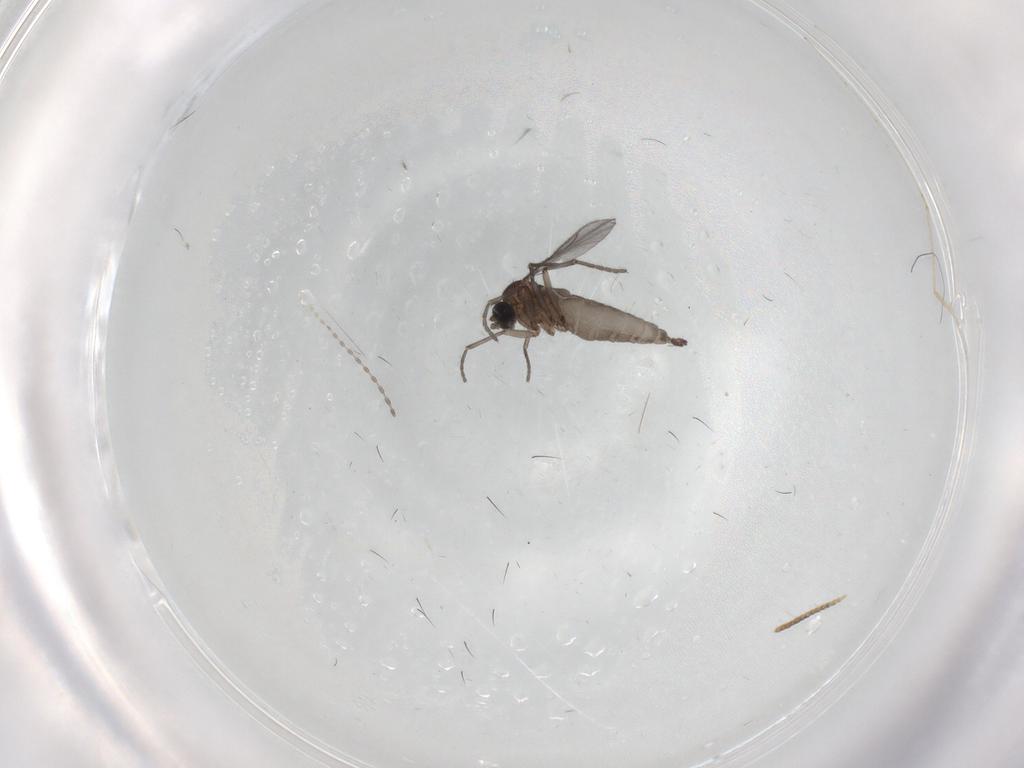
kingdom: Animalia
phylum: Arthropoda
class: Insecta
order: Diptera
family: Cecidomyiidae
